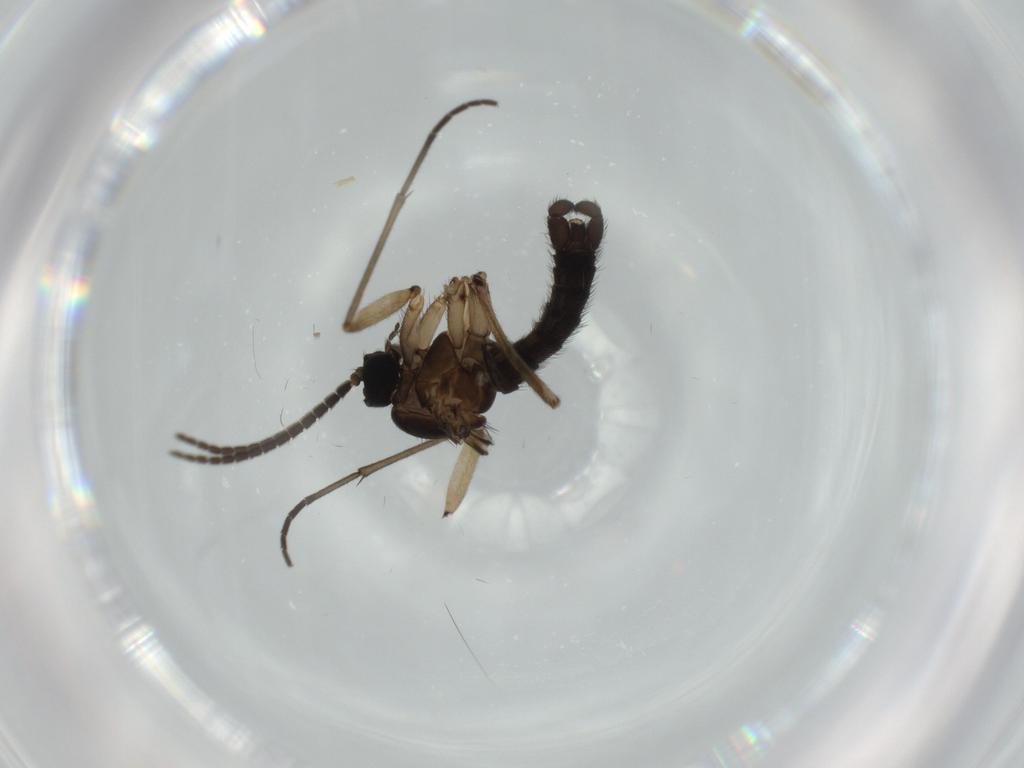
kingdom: Animalia
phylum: Arthropoda
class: Insecta
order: Diptera
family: Sciaridae
